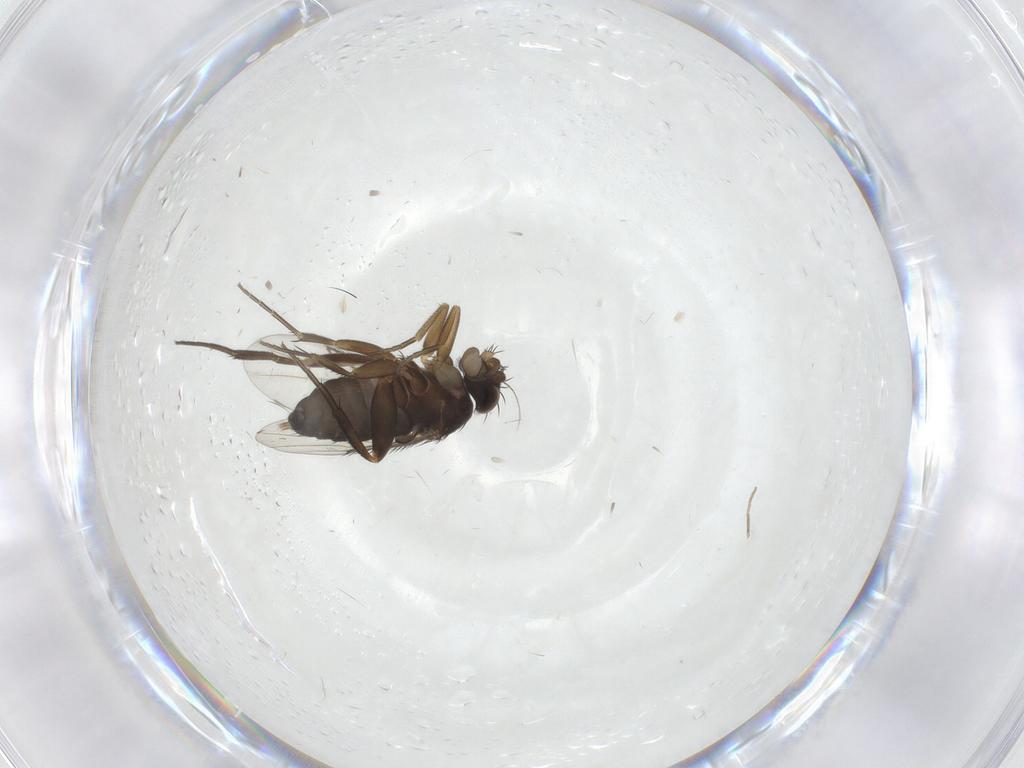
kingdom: Animalia
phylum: Arthropoda
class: Insecta
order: Diptera
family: Phoridae
